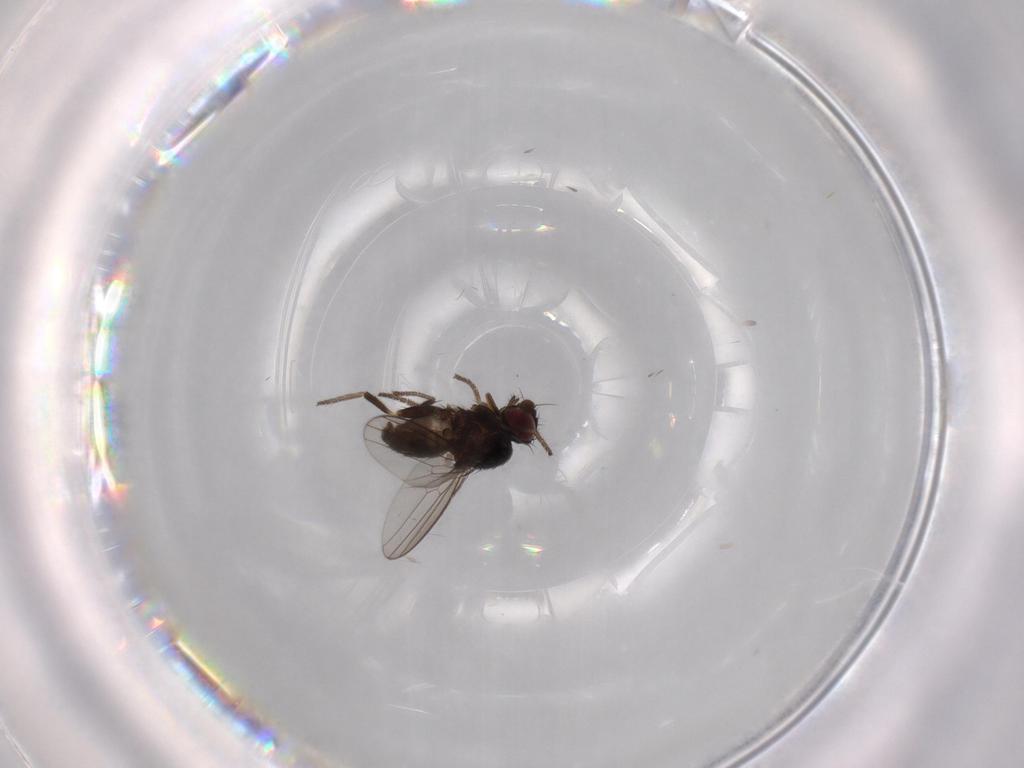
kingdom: Animalia
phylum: Arthropoda
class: Insecta
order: Diptera
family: Milichiidae
